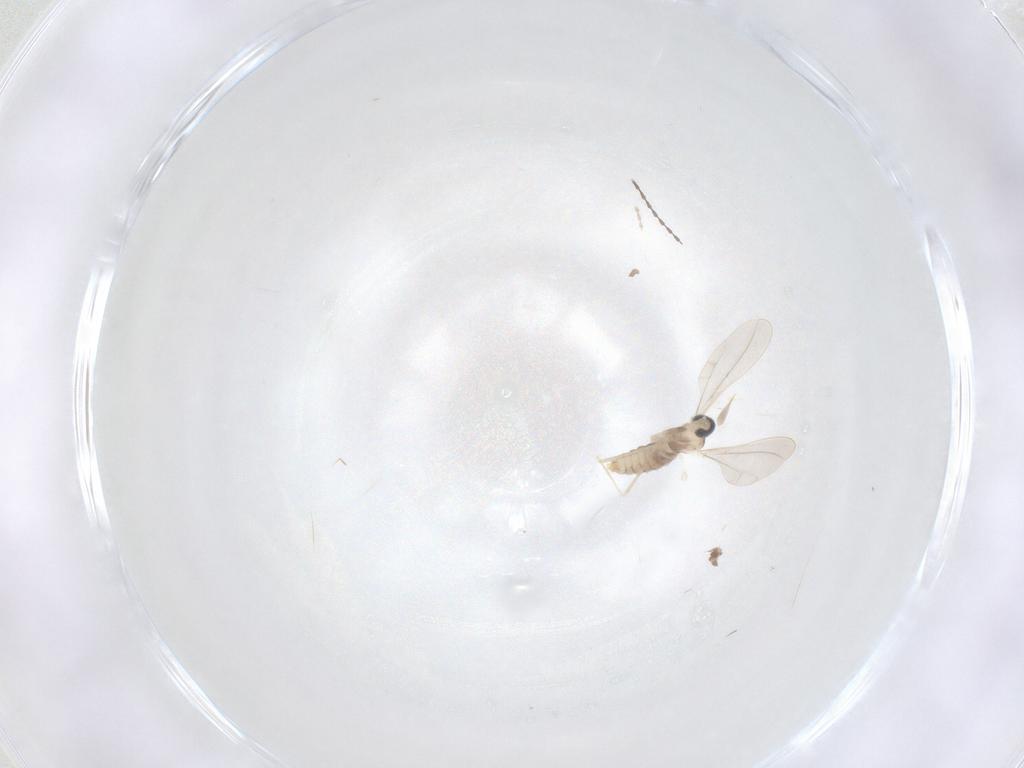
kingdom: Animalia
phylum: Arthropoda
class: Insecta
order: Diptera
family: Cecidomyiidae
